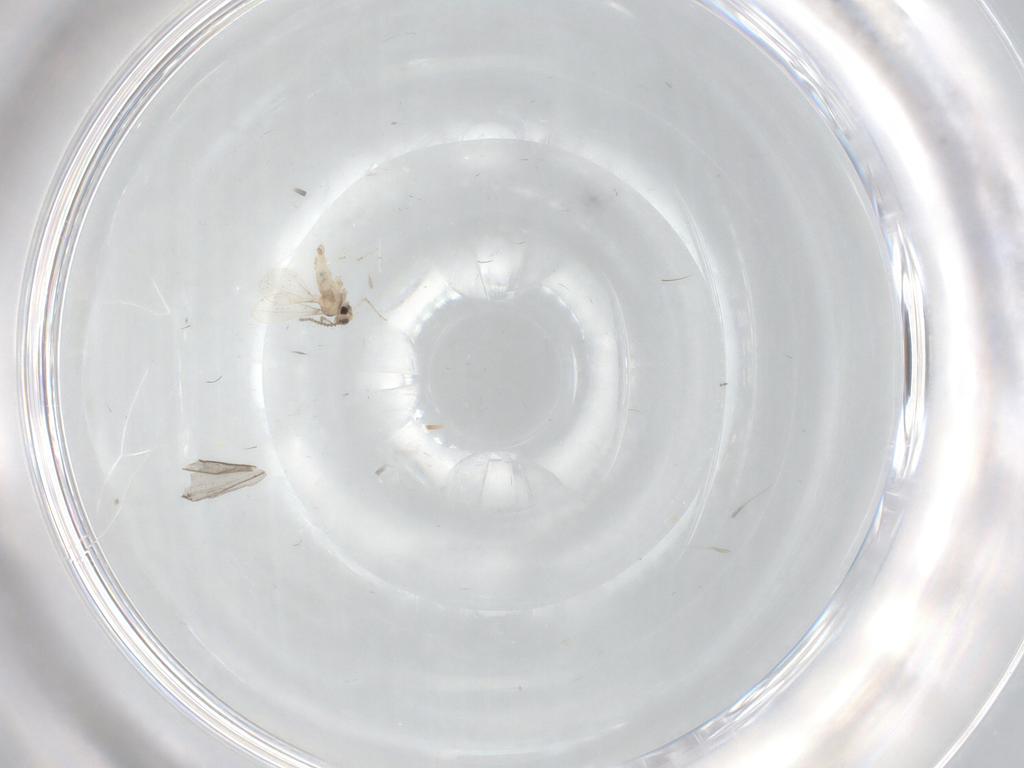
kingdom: Animalia
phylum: Arthropoda
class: Insecta
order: Diptera
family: Phoridae
